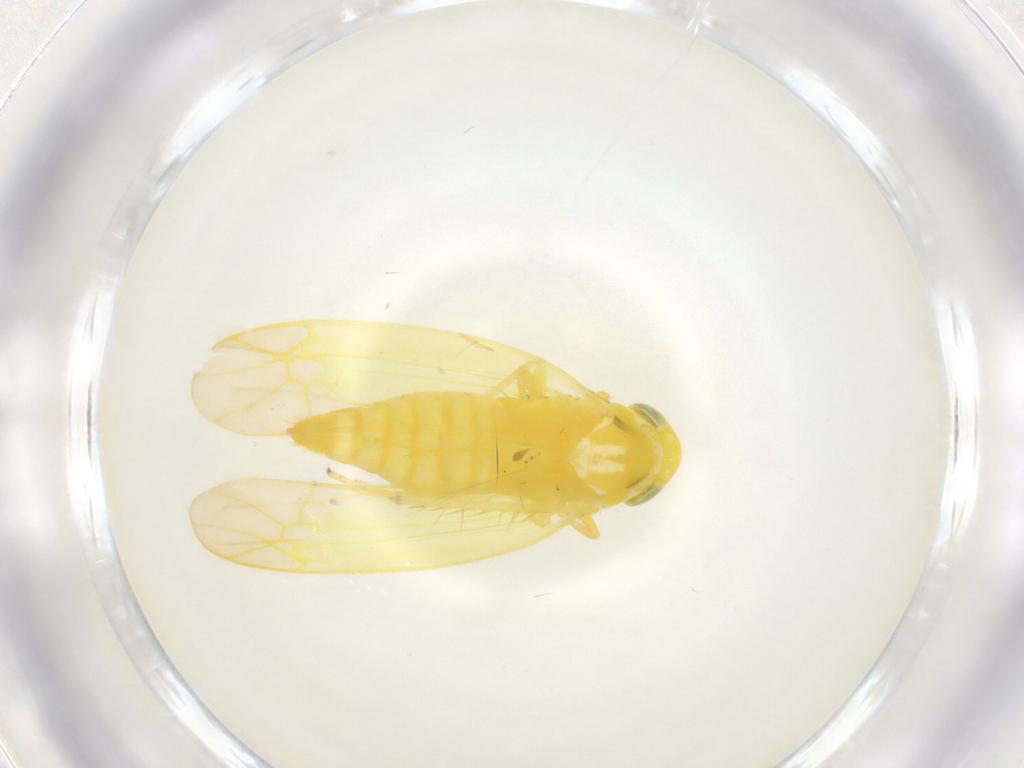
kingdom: Animalia
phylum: Arthropoda
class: Insecta
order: Hemiptera
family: Cicadellidae
